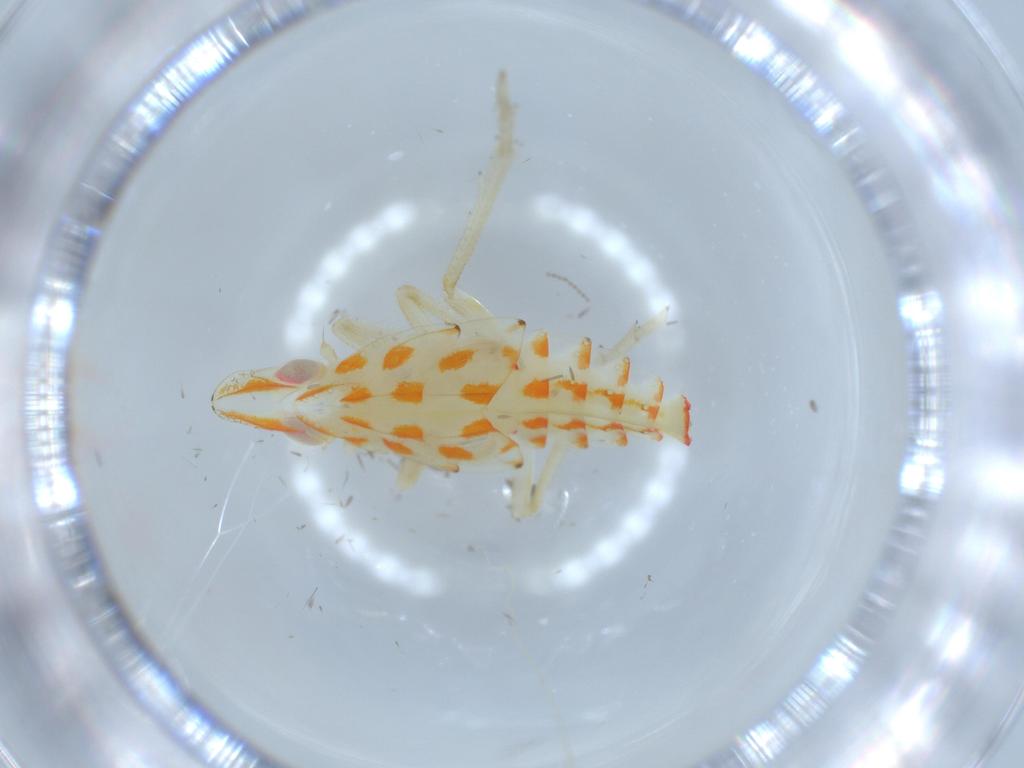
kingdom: Animalia
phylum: Arthropoda
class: Insecta
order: Hemiptera
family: Tropiduchidae
